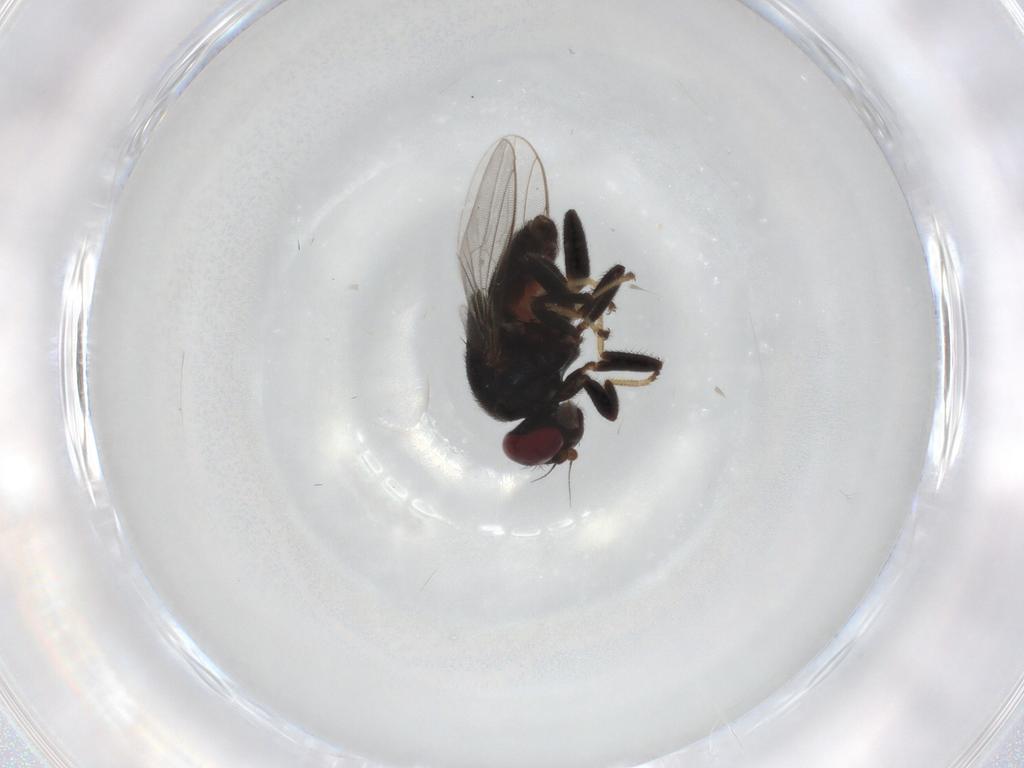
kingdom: Animalia
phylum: Arthropoda
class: Insecta
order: Diptera
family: Chloropidae
